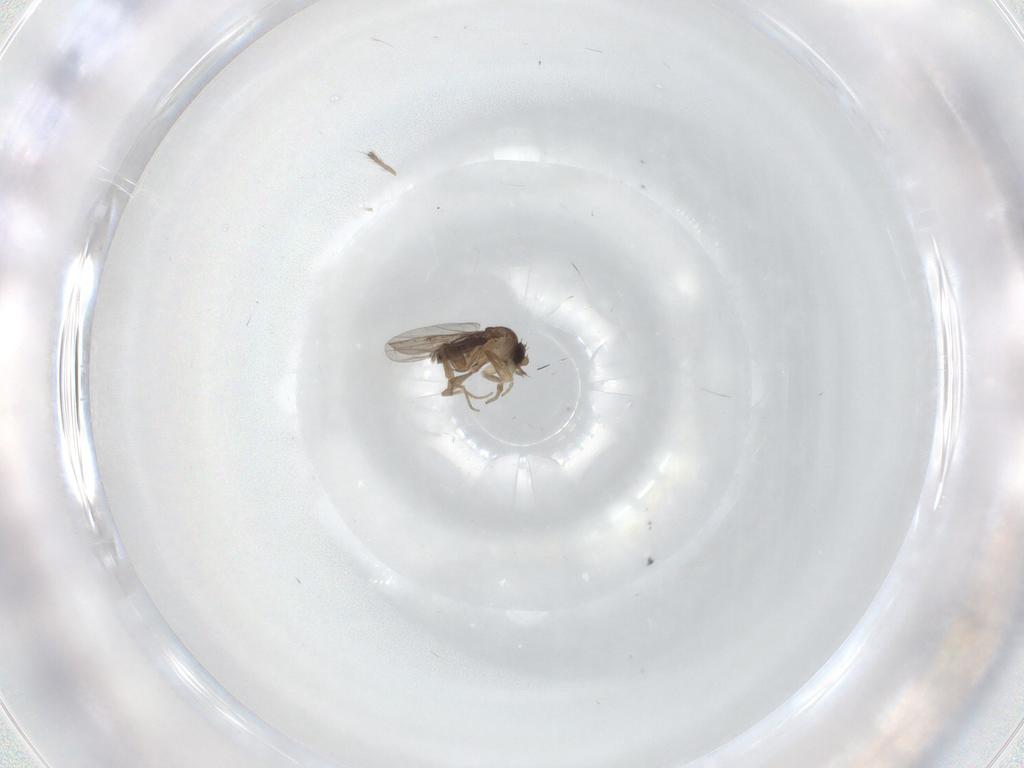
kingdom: Animalia
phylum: Arthropoda
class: Insecta
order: Diptera
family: Phoridae
